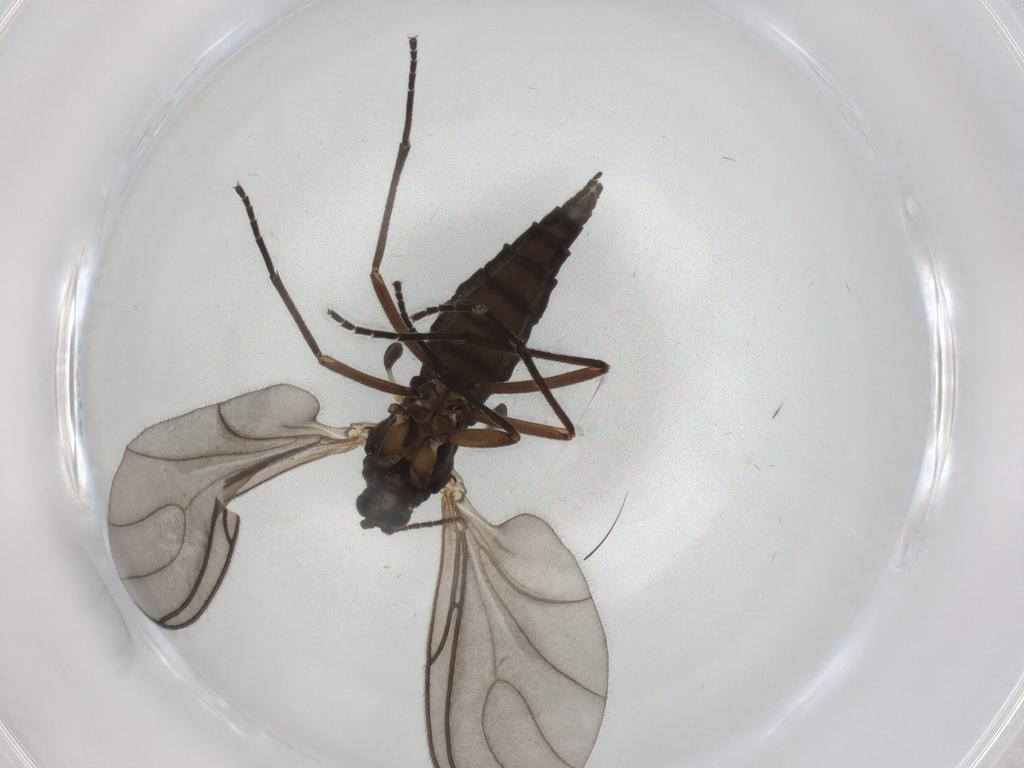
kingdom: Animalia
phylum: Arthropoda
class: Insecta
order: Diptera
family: Sciaridae
